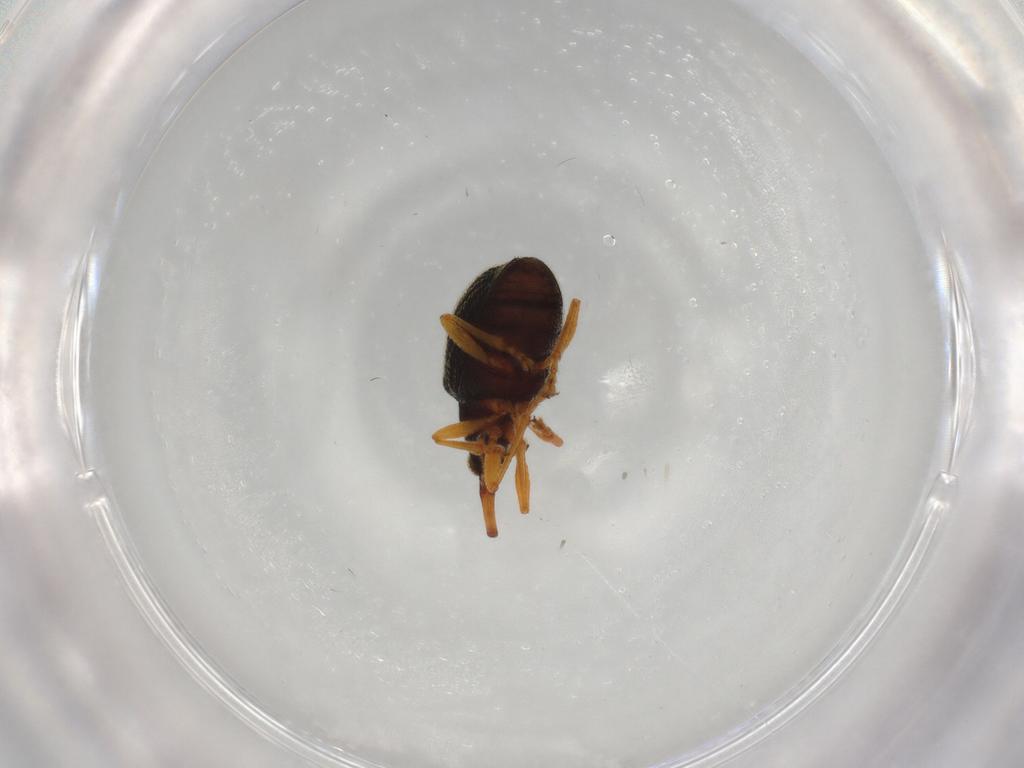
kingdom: Animalia
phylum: Arthropoda
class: Insecta
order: Coleoptera
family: Brentidae
